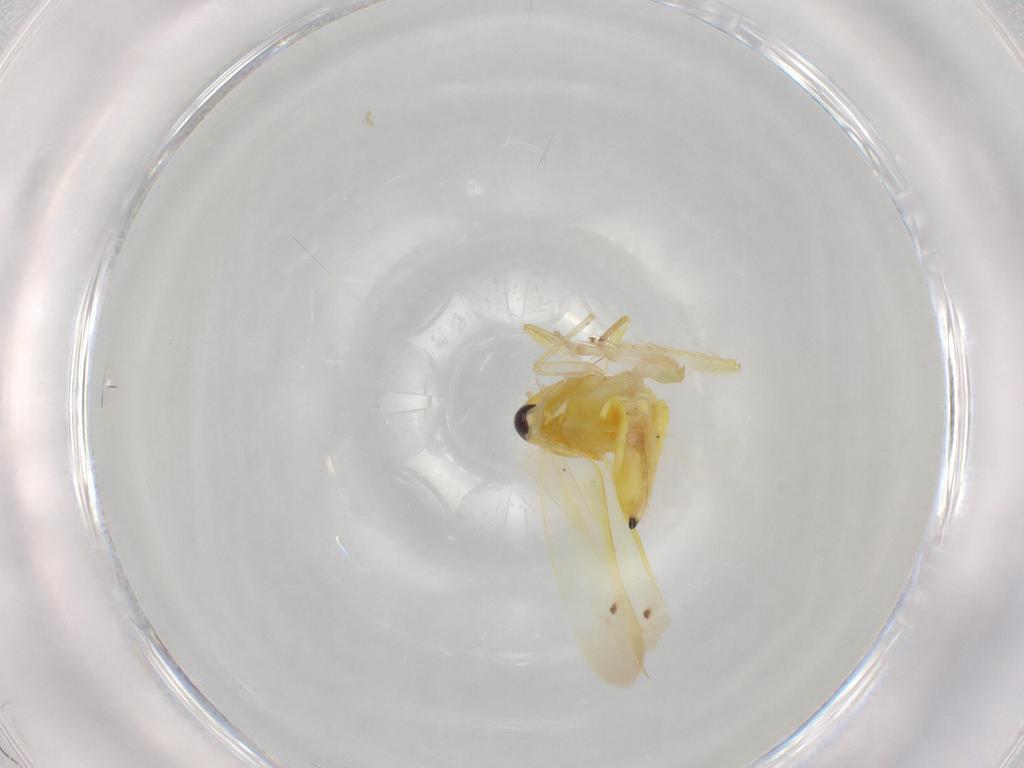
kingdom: Animalia
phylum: Arthropoda
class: Insecta
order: Hemiptera
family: Cicadellidae
